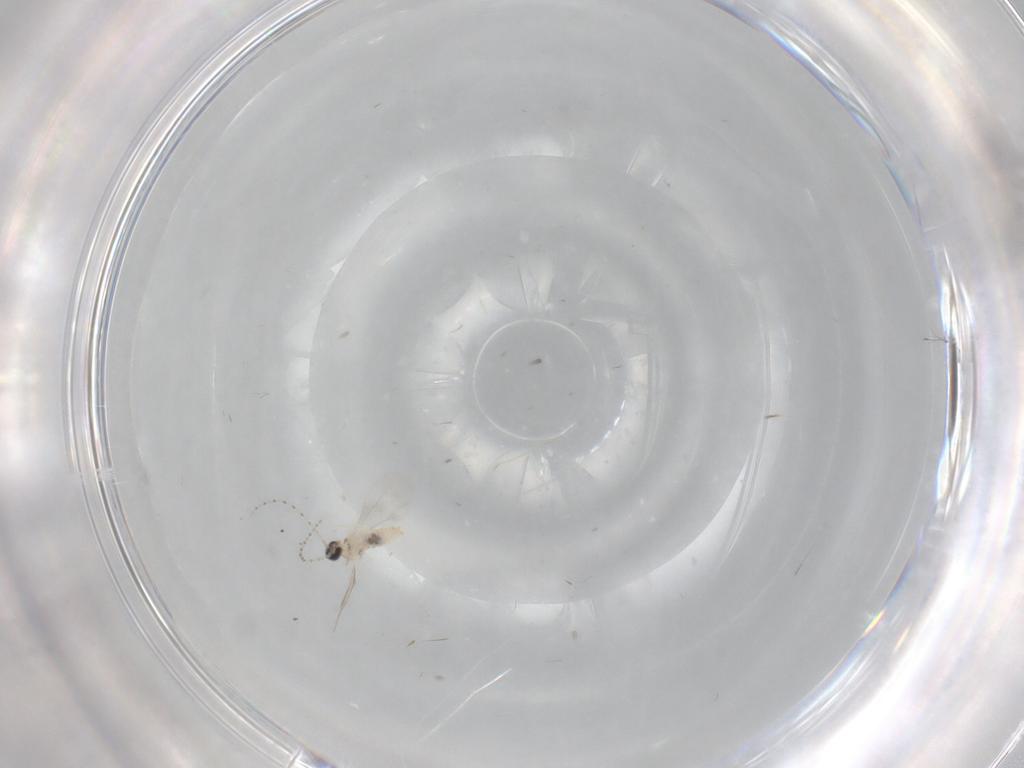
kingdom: Animalia
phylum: Arthropoda
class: Insecta
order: Diptera
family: Cecidomyiidae
